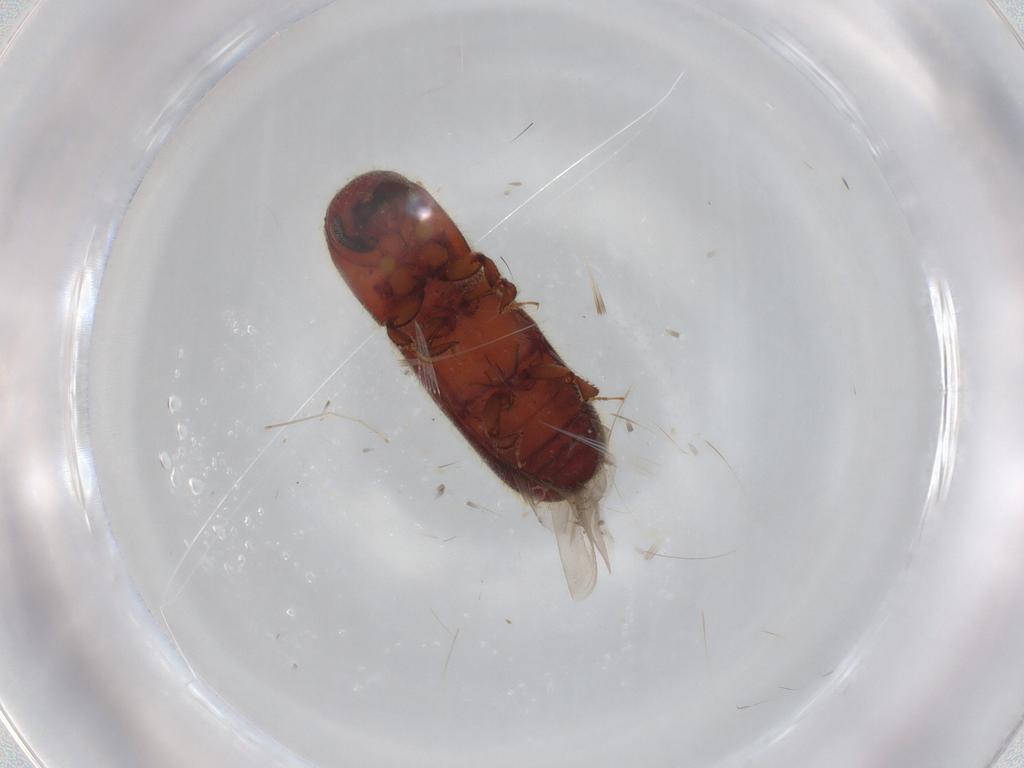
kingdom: Animalia
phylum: Arthropoda
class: Insecta
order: Coleoptera
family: Curculionidae
